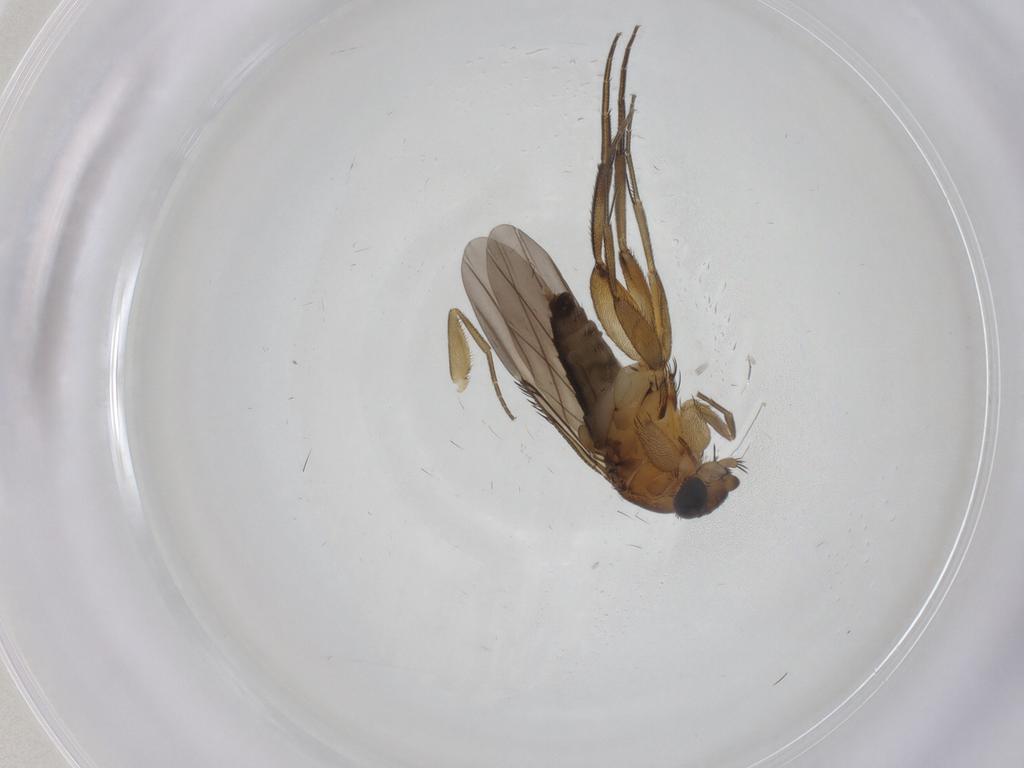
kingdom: Animalia
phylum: Arthropoda
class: Insecta
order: Diptera
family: Phoridae
